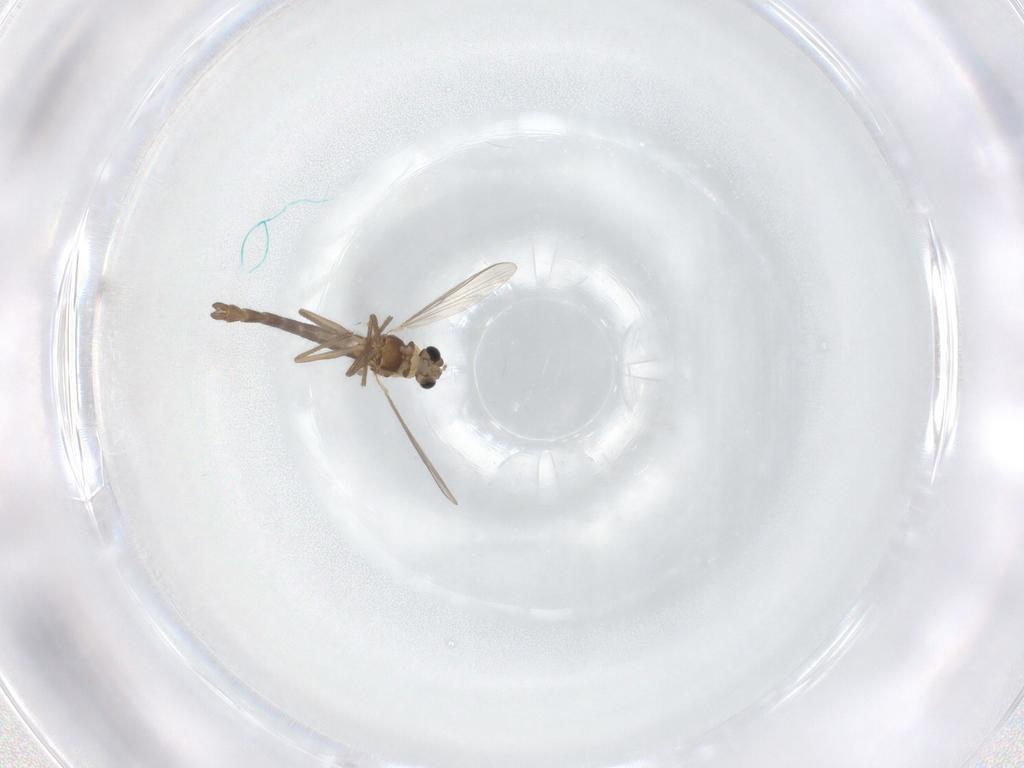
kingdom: Animalia
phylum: Arthropoda
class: Insecta
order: Diptera
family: Chironomidae
